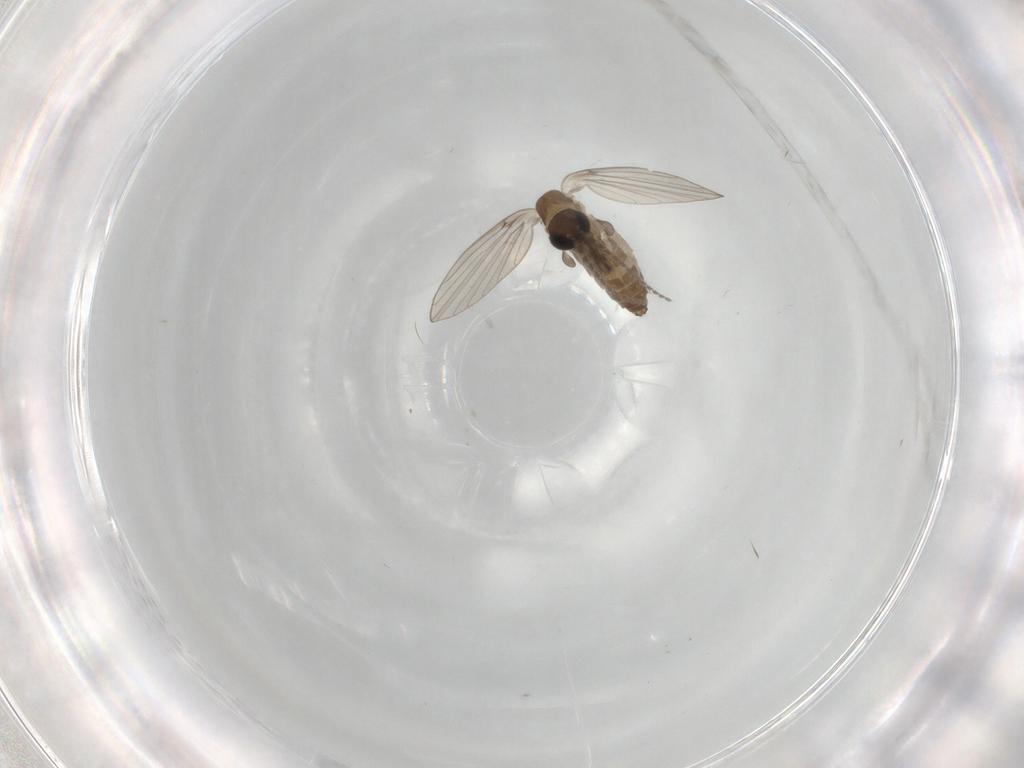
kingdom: Animalia
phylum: Arthropoda
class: Insecta
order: Diptera
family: Psychodidae
